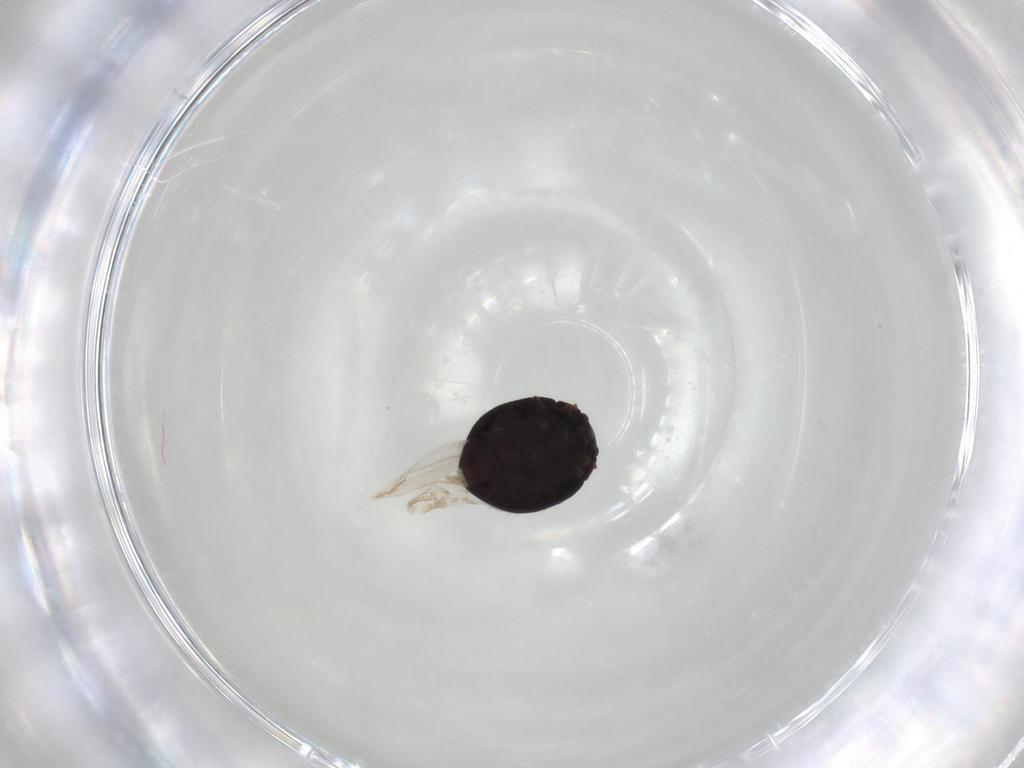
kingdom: Animalia
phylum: Arthropoda
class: Insecta
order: Coleoptera
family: Coccinellidae
